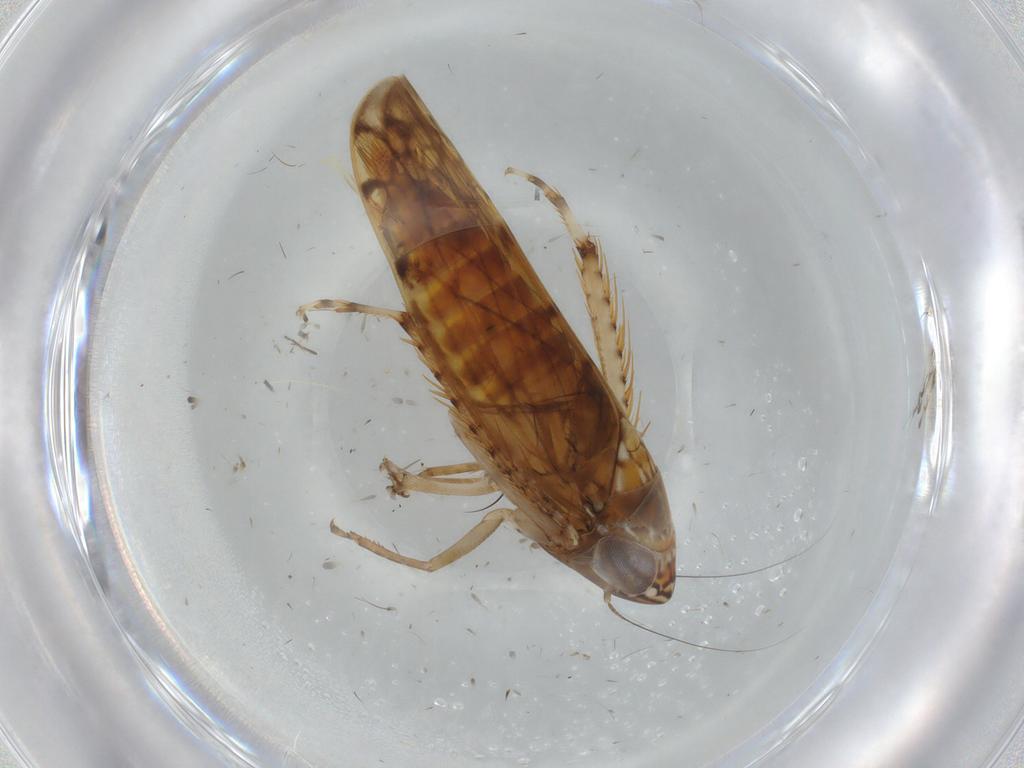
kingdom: Animalia
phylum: Arthropoda
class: Insecta
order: Hemiptera
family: Cicadellidae
